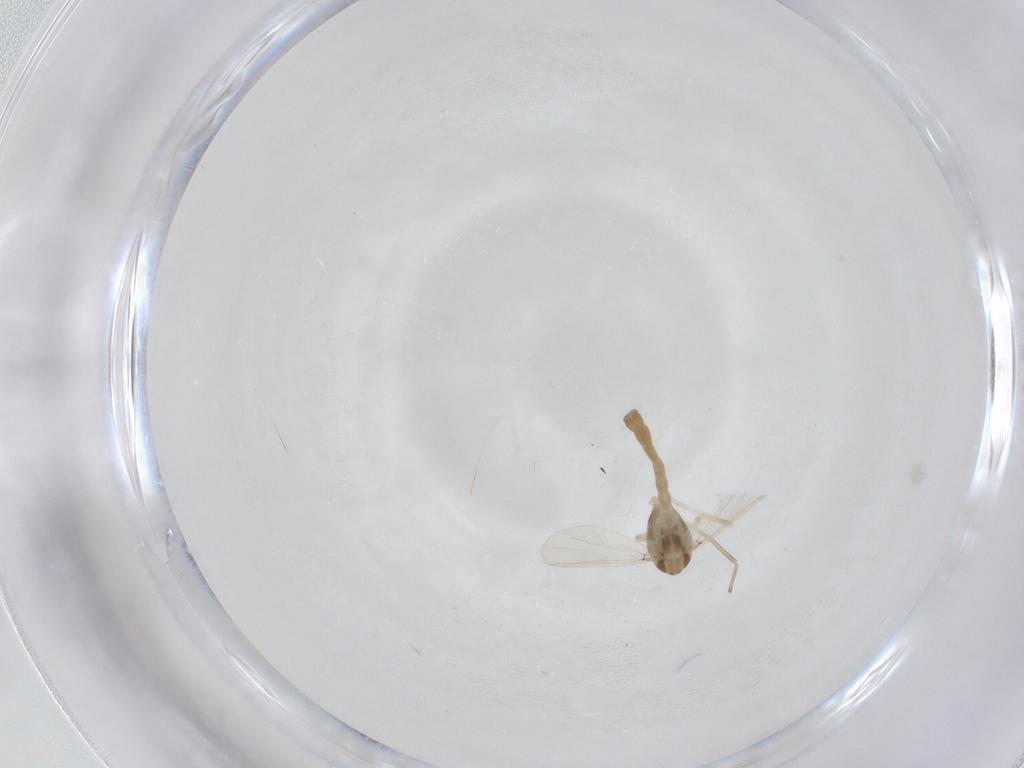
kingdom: Animalia
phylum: Arthropoda
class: Insecta
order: Diptera
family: Chironomidae
